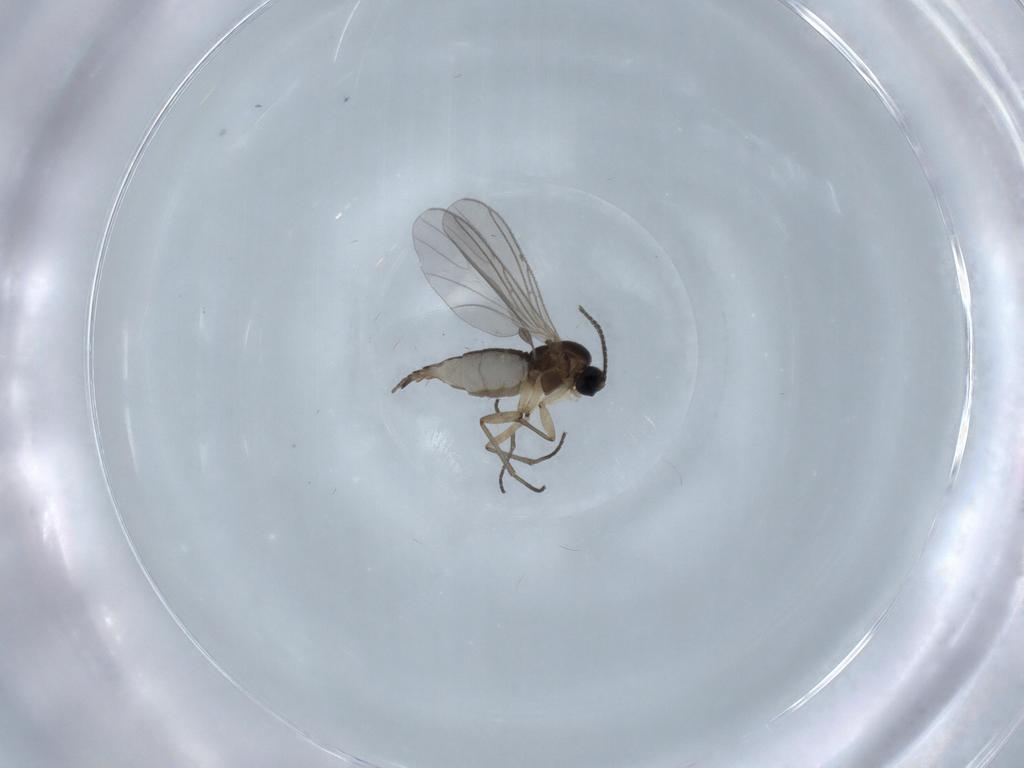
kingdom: Animalia
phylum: Arthropoda
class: Insecta
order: Diptera
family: Sciaridae
